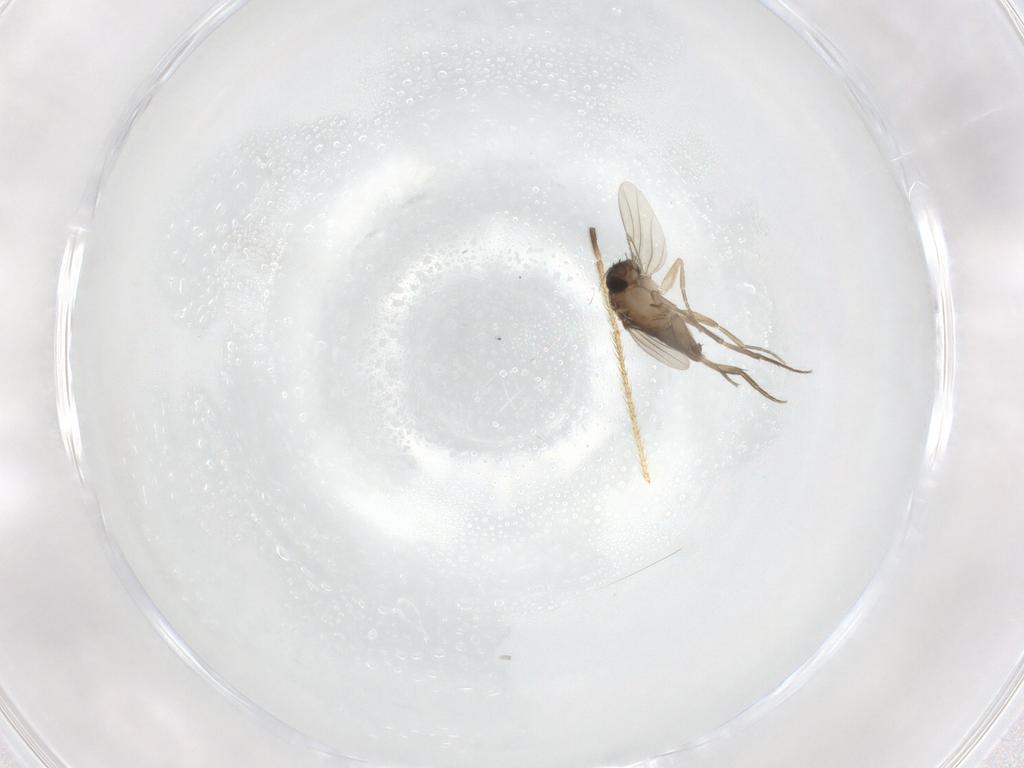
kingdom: Animalia
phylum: Arthropoda
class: Insecta
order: Diptera
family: Limoniidae
